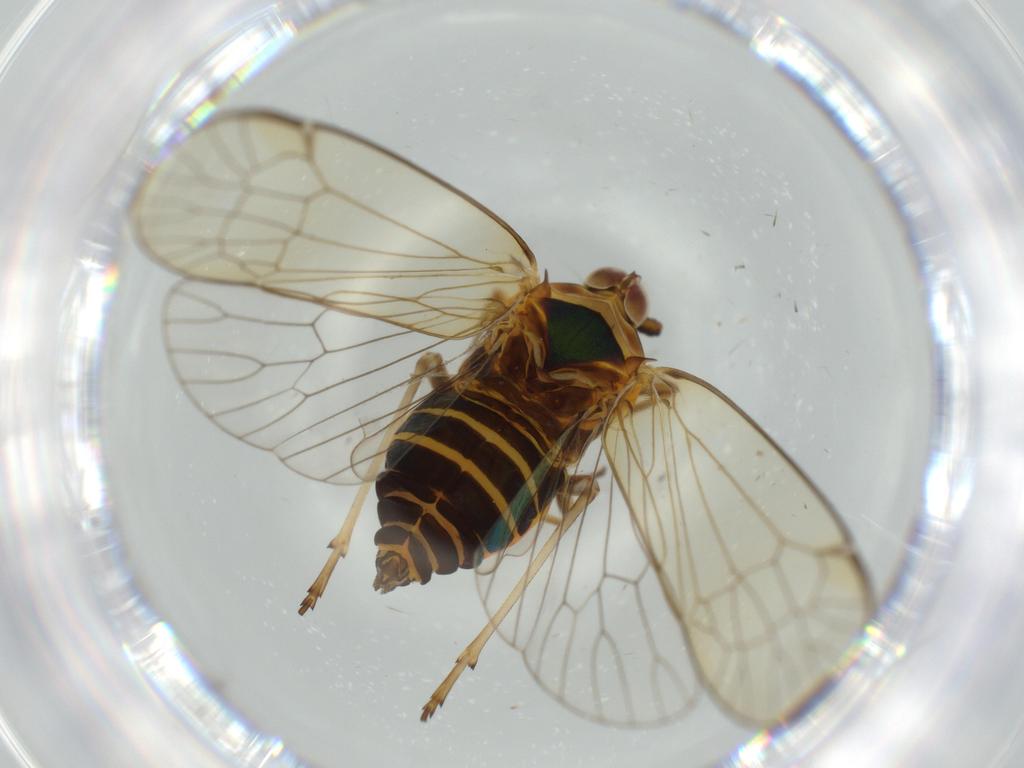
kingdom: Animalia
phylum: Arthropoda
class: Insecta
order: Hemiptera
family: Kinnaridae
